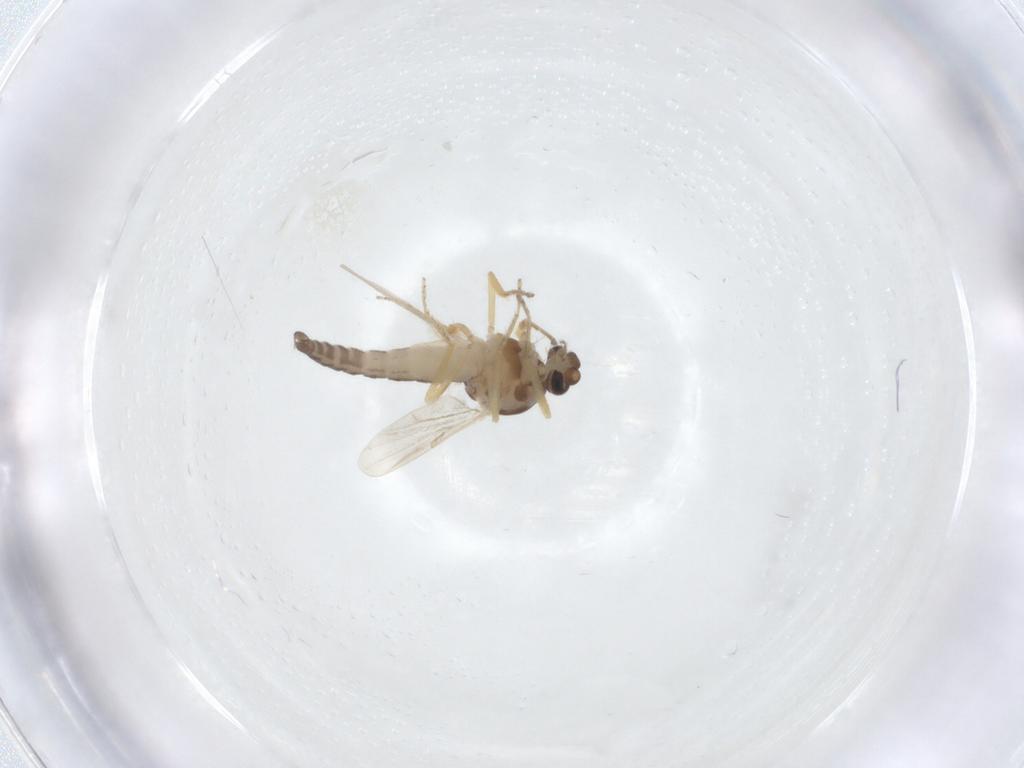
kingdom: Animalia
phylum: Arthropoda
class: Insecta
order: Diptera
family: Ceratopogonidae
